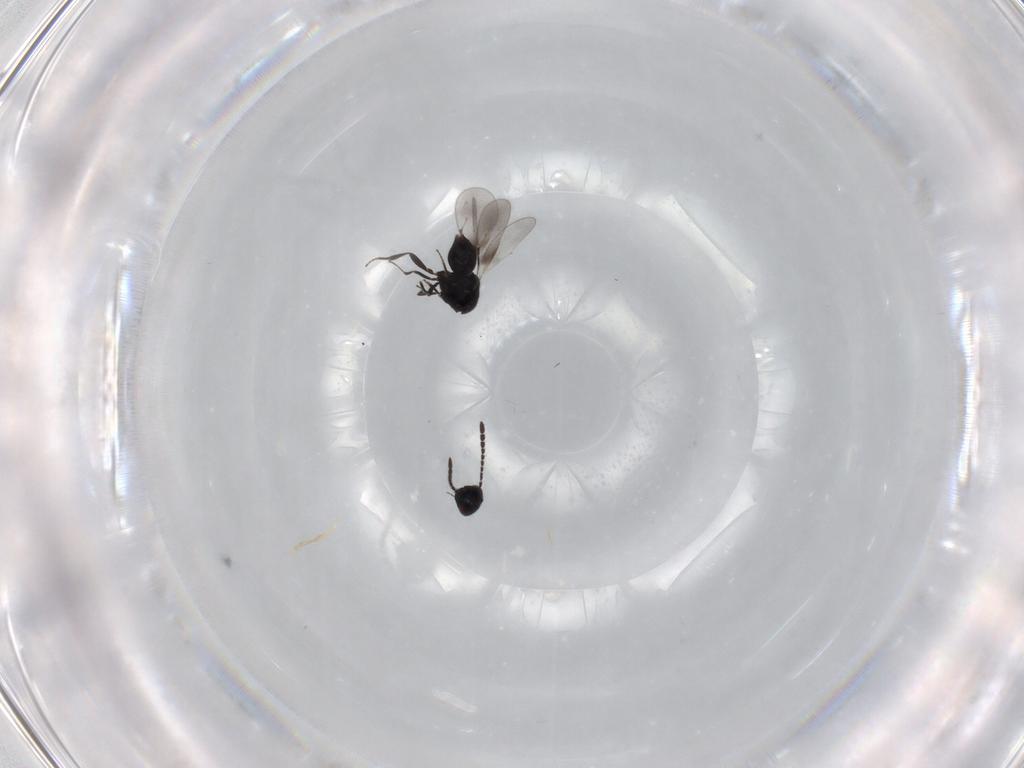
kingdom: Animalia
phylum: Arthropoda
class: Insecta
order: Hymenoptera
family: Ceraphronidae
